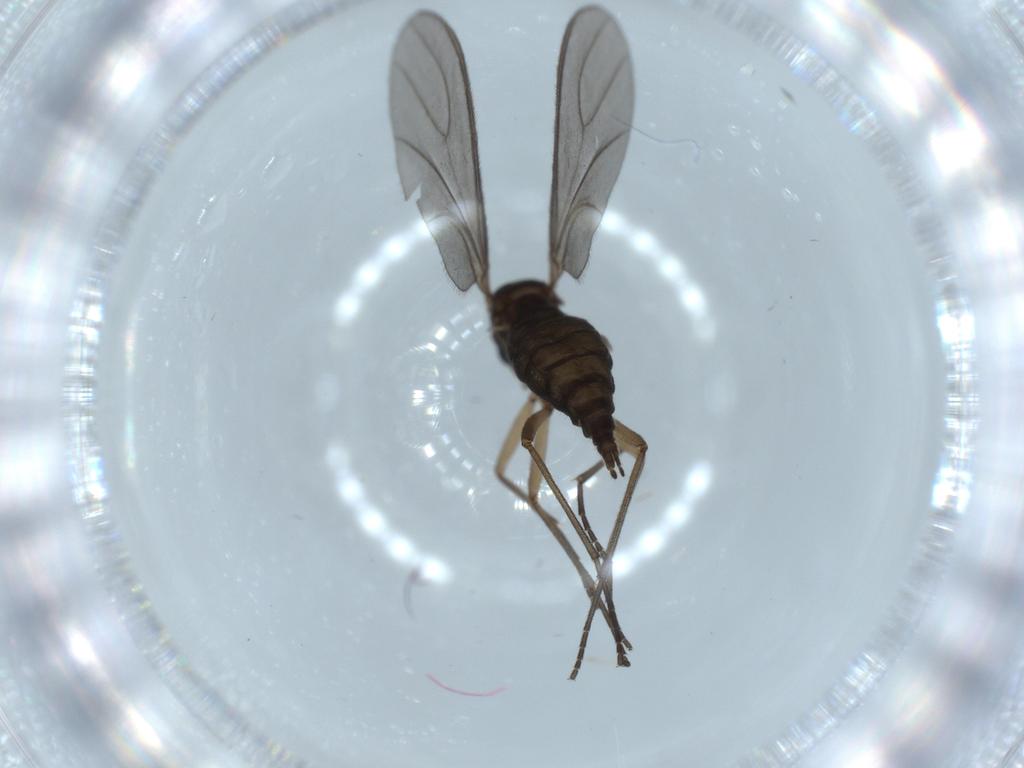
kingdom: Animalia
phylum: Arthropoda
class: Insecta
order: Diptera
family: Sciaridae
